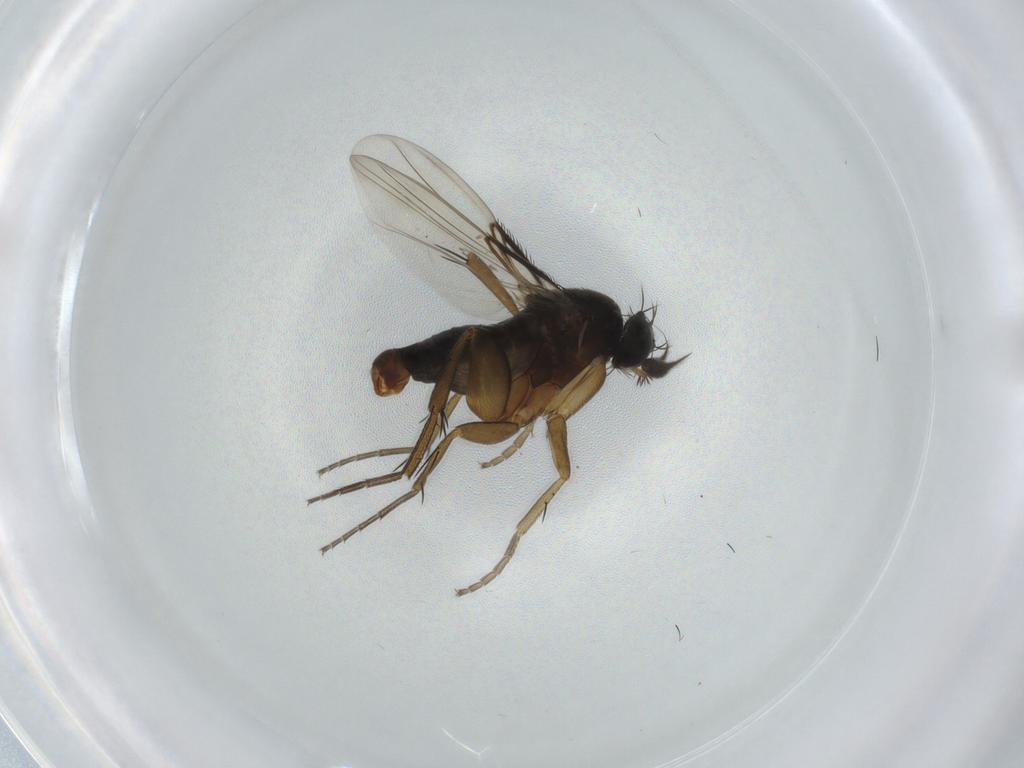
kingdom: Animalia
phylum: Arthropoda
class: Insecta
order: Diptera
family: Phoridae
